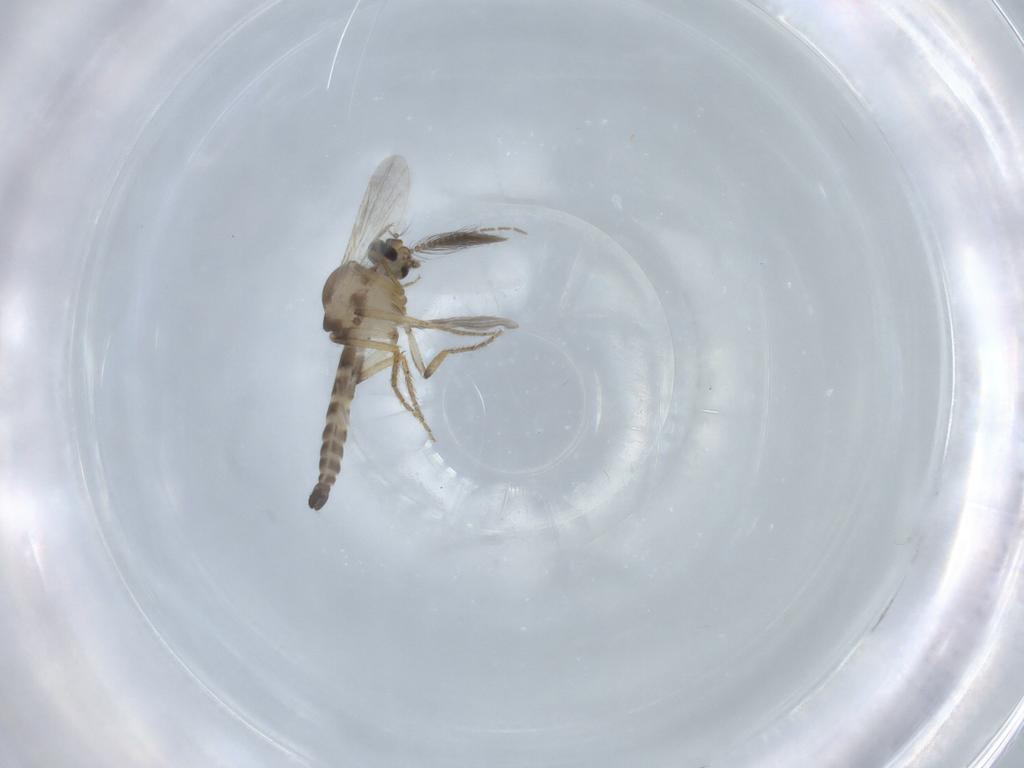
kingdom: Animalia
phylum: Arthropoda
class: Insecta
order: Diptera
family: Ceratopogonidae
